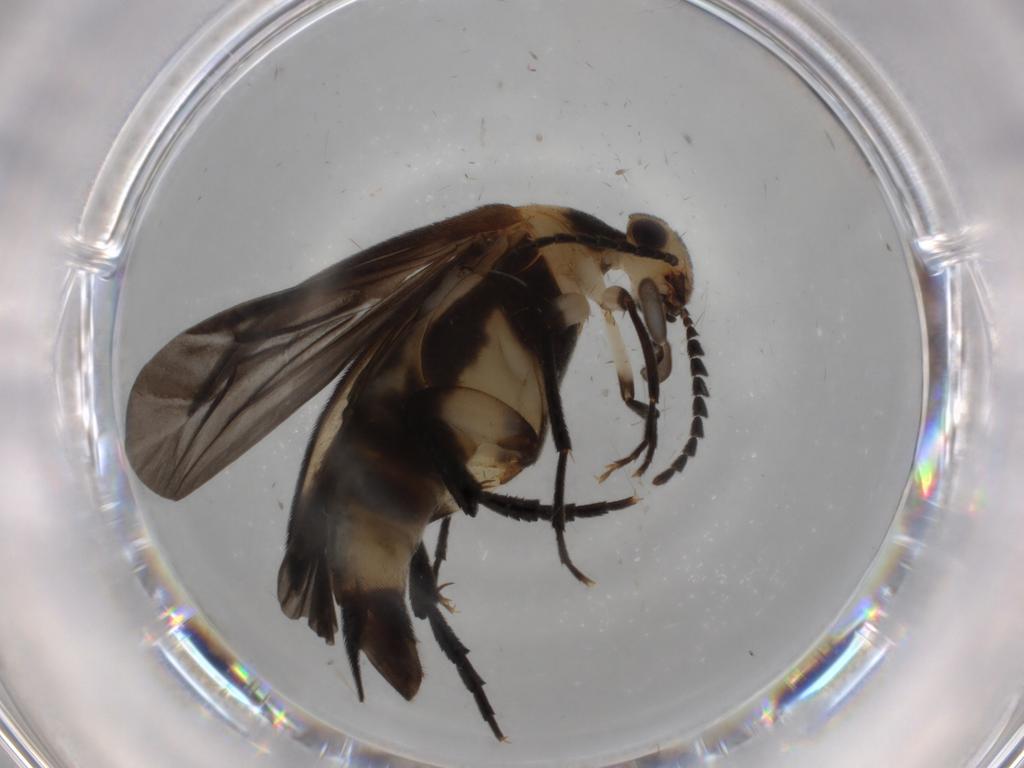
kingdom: Animalia
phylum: Arthropoda
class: Insecta
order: Coleoptera
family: Mordellidae
